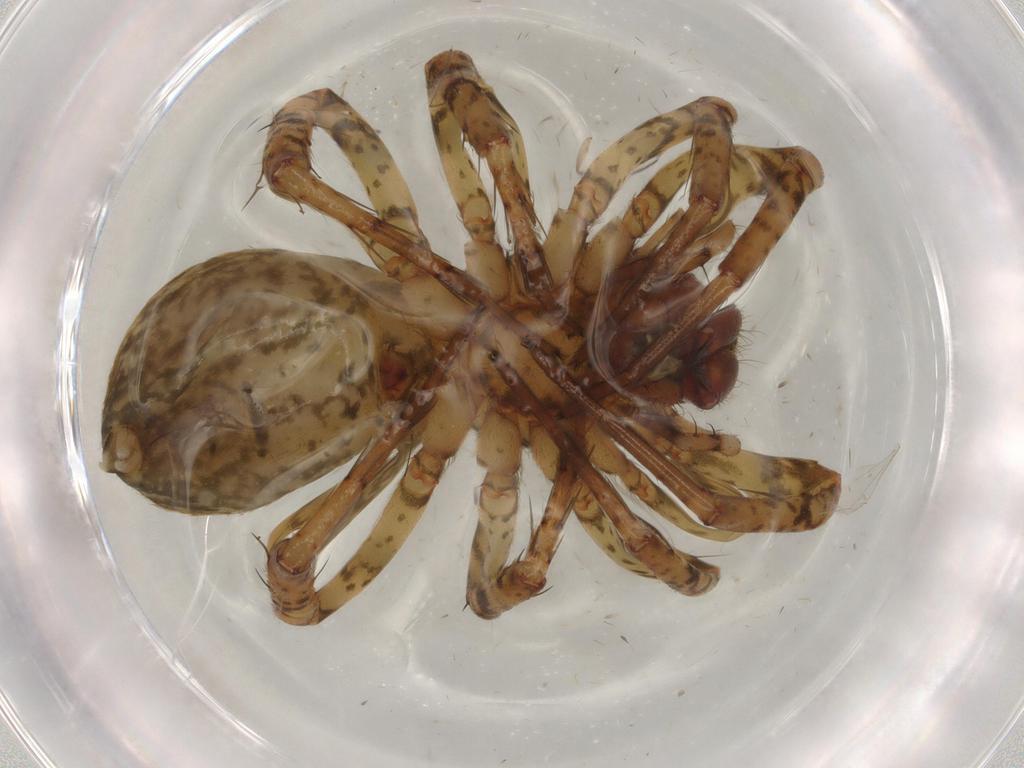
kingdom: Animalia
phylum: Arthropoda
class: Arachnida
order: Araneae
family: Anyphaenidae
